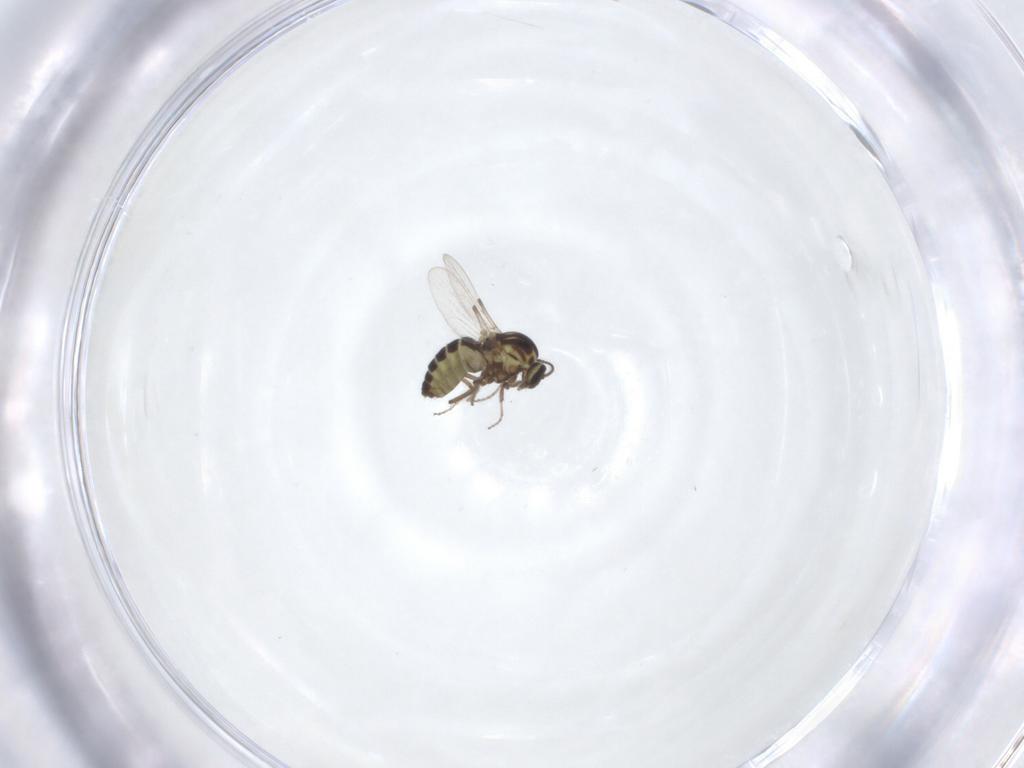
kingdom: Animalia
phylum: Arthropoda
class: Insecta
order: Diptera
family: Ceratopogonidae
